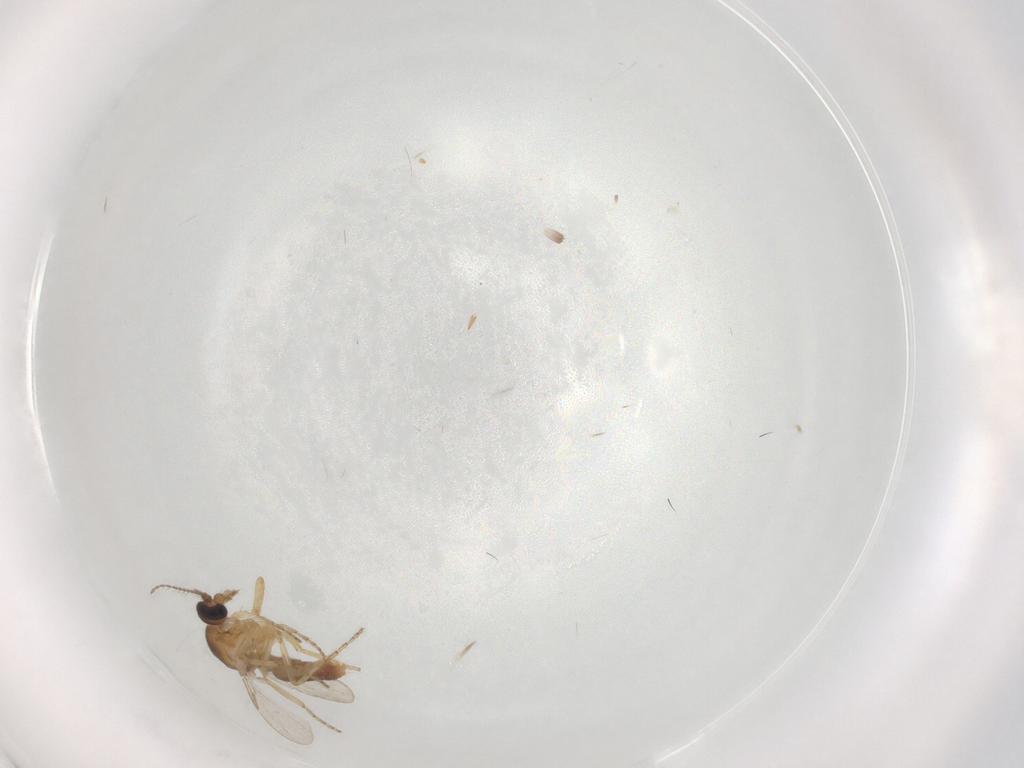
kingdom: Animalia
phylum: Arthropoda
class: Insecta
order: Diptera
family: Ceratopogonidae
